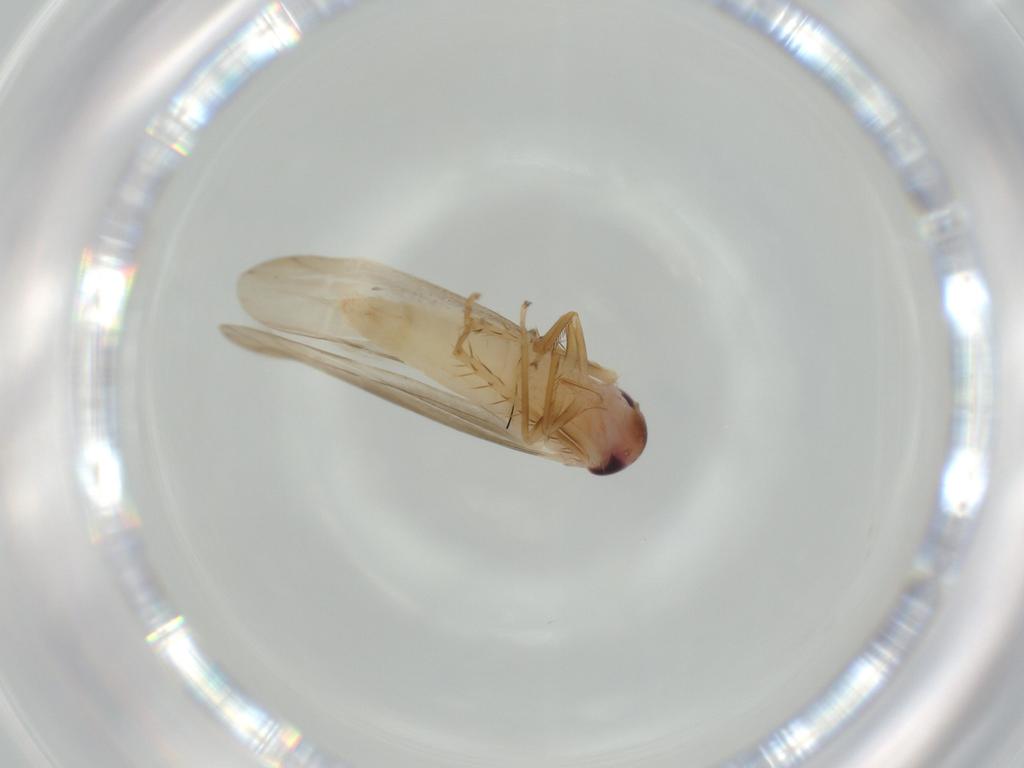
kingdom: Animalia
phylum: Arthropoda
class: Insecta
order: Hemiptera
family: Cicadellidae
